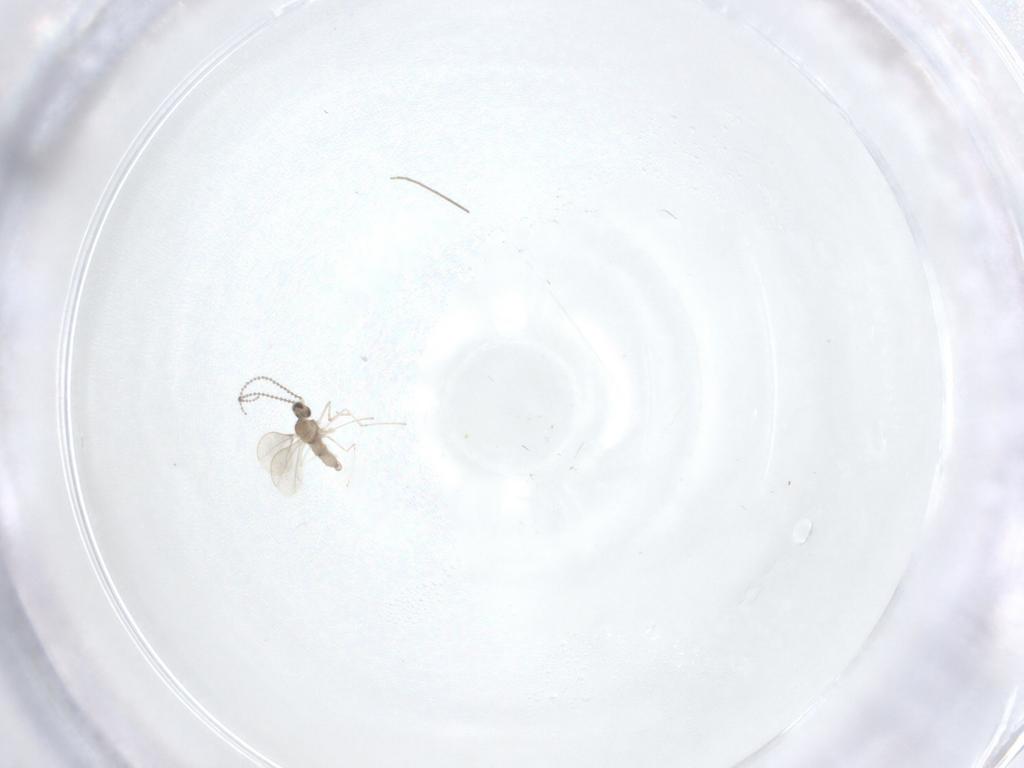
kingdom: Animalia
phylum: Arthropoda
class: Insecta
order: Diptera
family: Cecidomyiidae
